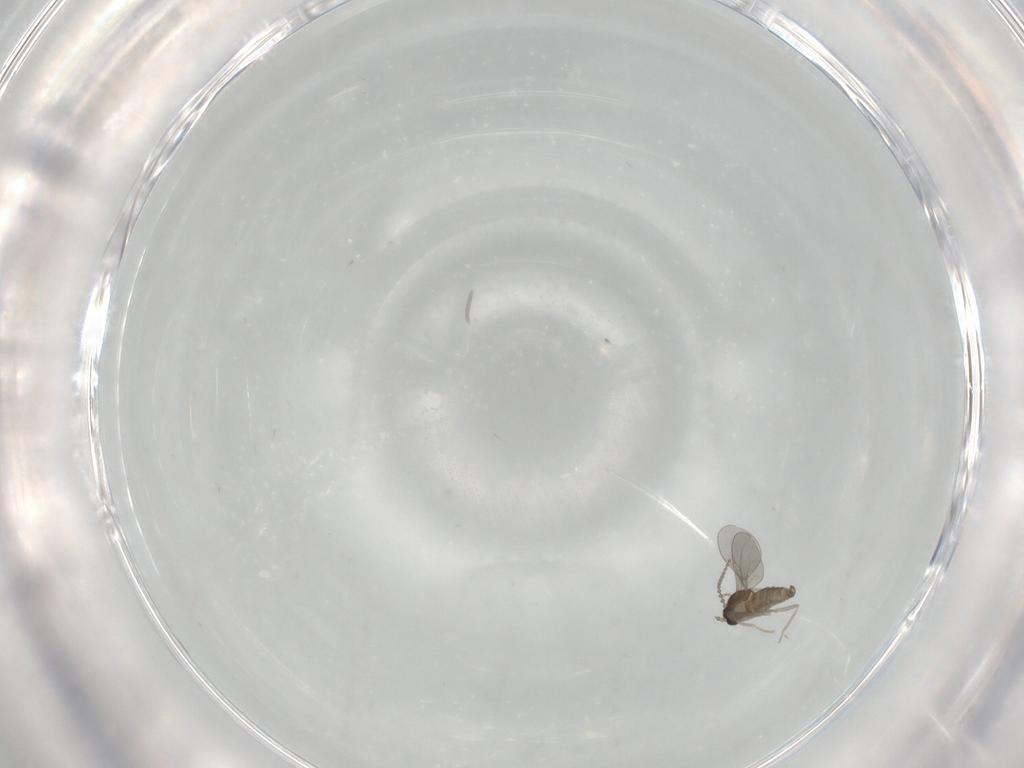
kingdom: Animalia
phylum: Arthropoda
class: Insecta
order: Diptera
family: Cecidomyiidae
